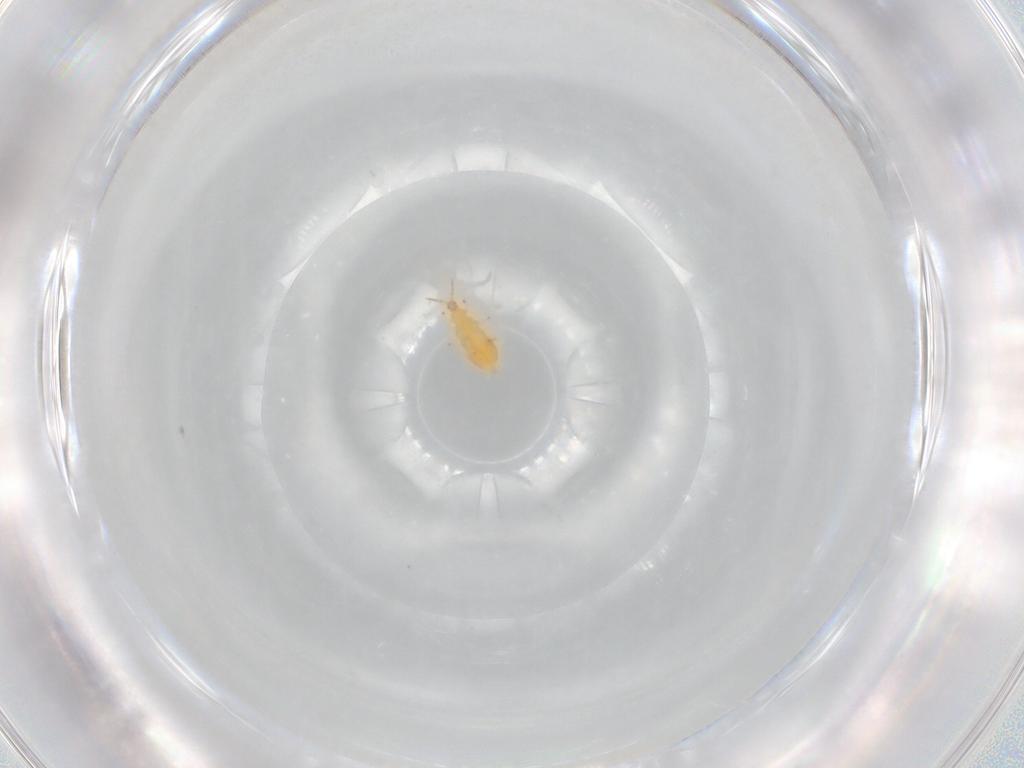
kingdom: Animalia
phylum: Arthropoda
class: Insecta
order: Thysanoptera
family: Heterothripidae
